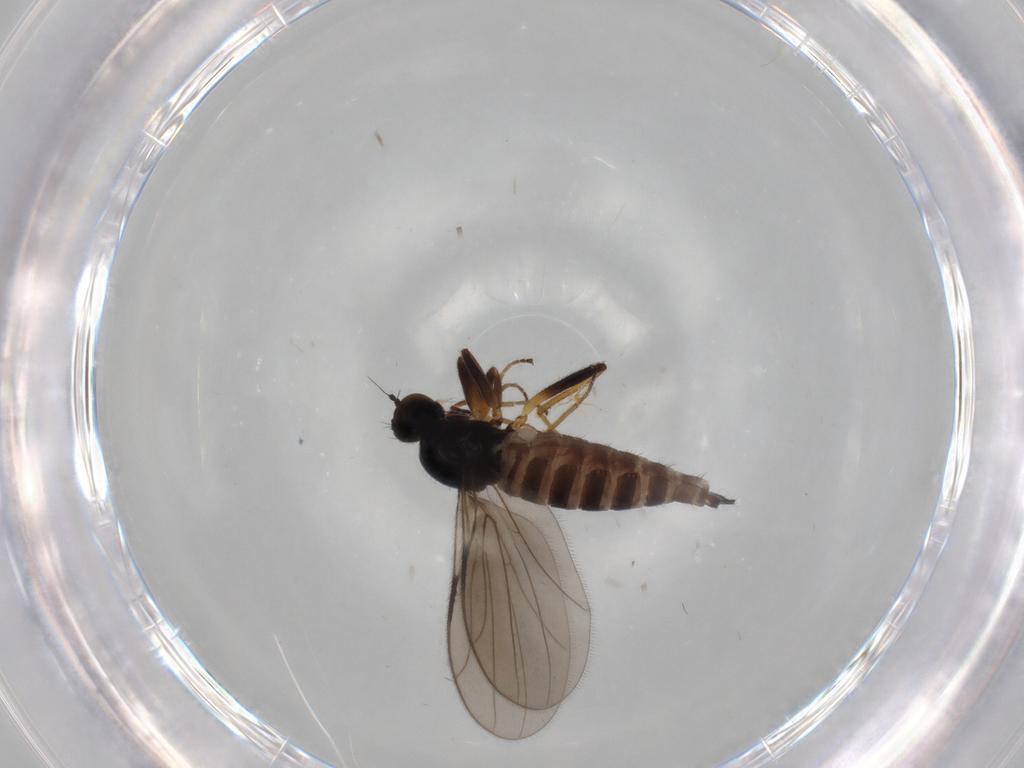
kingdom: Animalia
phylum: Arthropoda
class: Insecta
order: Diptera
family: Hybotidae
